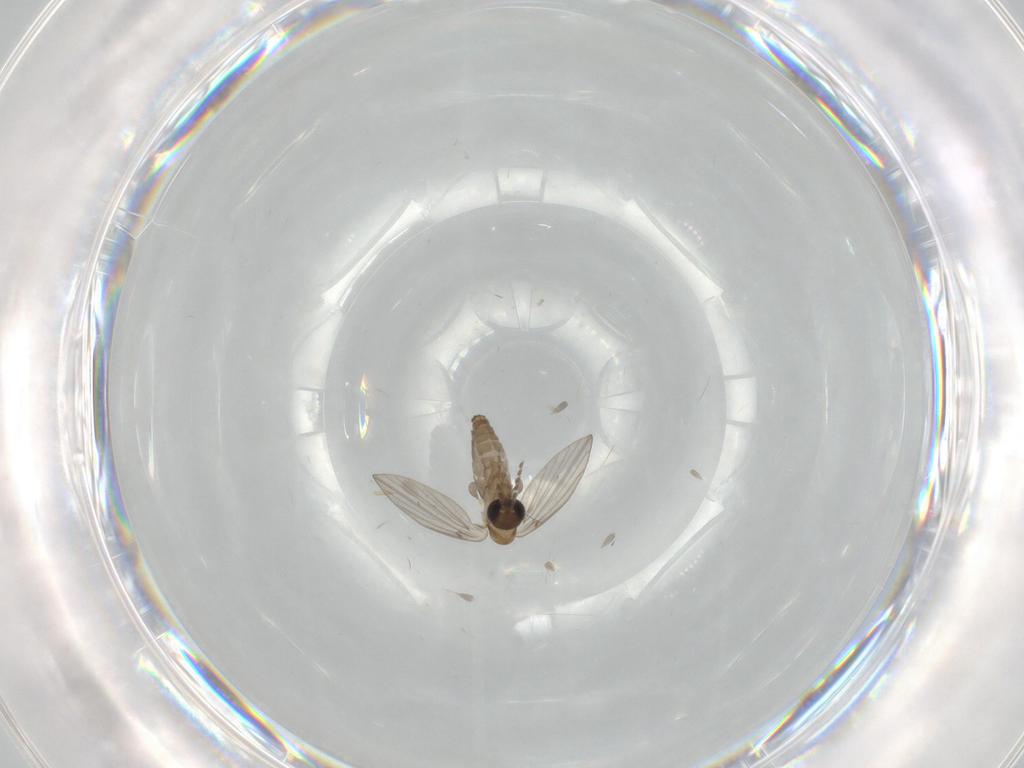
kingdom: Animalia
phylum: Arthropoda
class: Insecta
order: Diptera
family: Psychodidae
